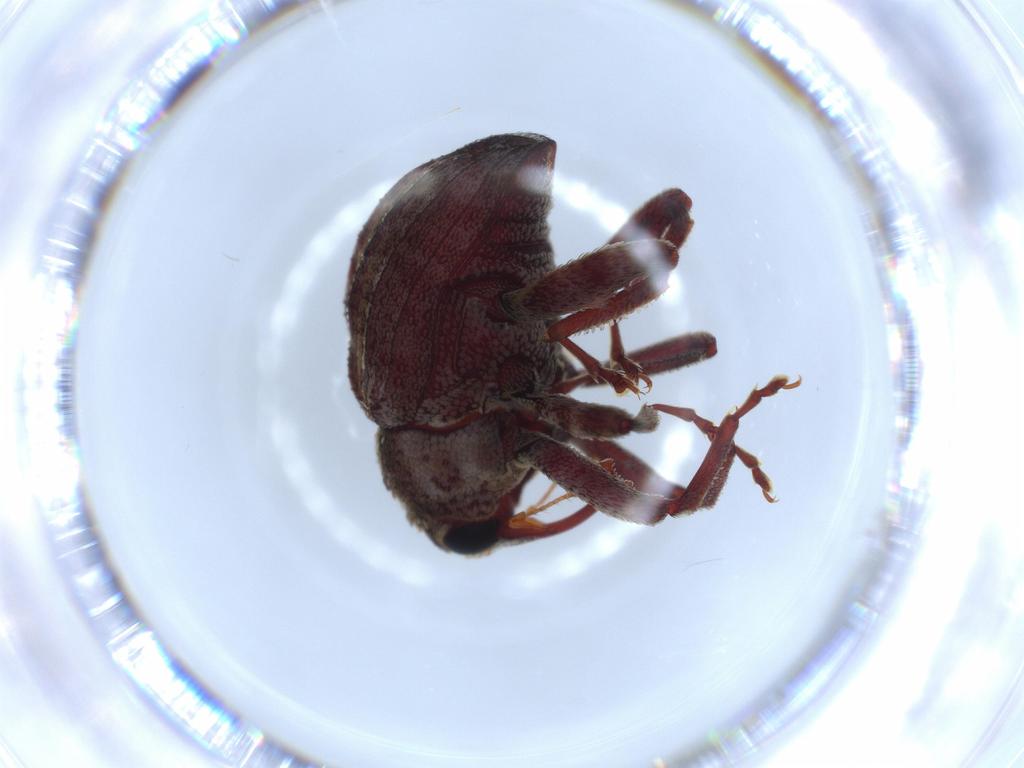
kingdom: Animalia
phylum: Arthropoda
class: Insecta
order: Coleoptera
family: Curculionidae
